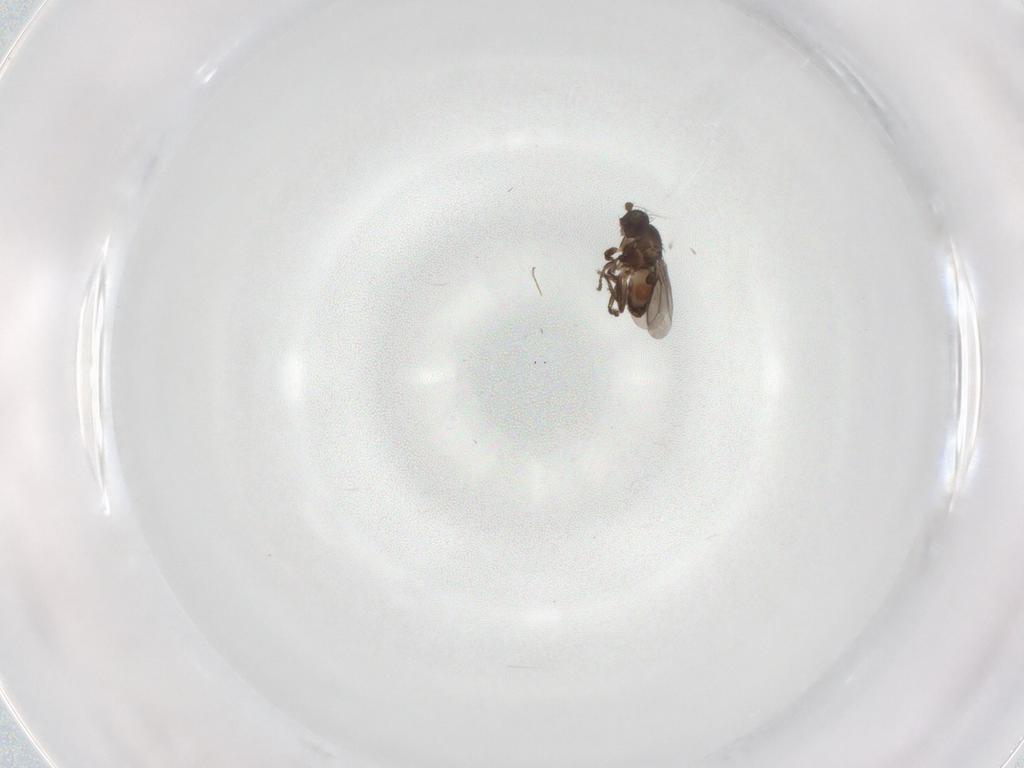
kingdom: Animalia
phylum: Arthropoda
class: Insecta
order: Diptera
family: Chironomidae
